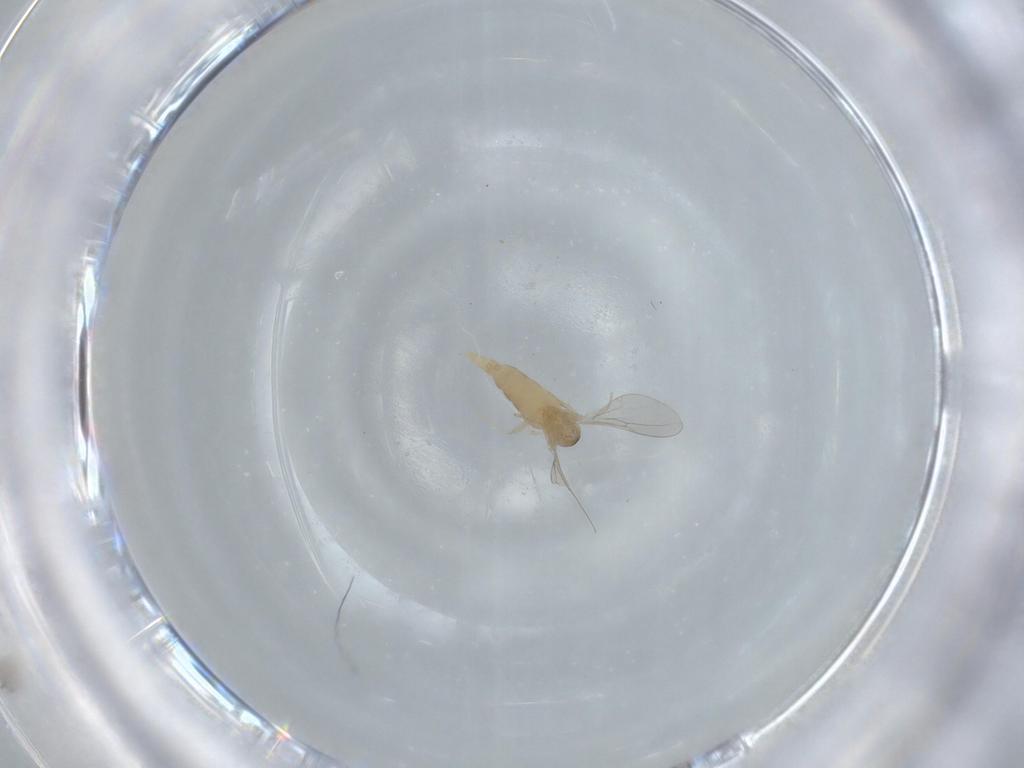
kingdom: Animalia
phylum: Arthropoda
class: Insecta
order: Diptera
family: Cecidomyiidae
